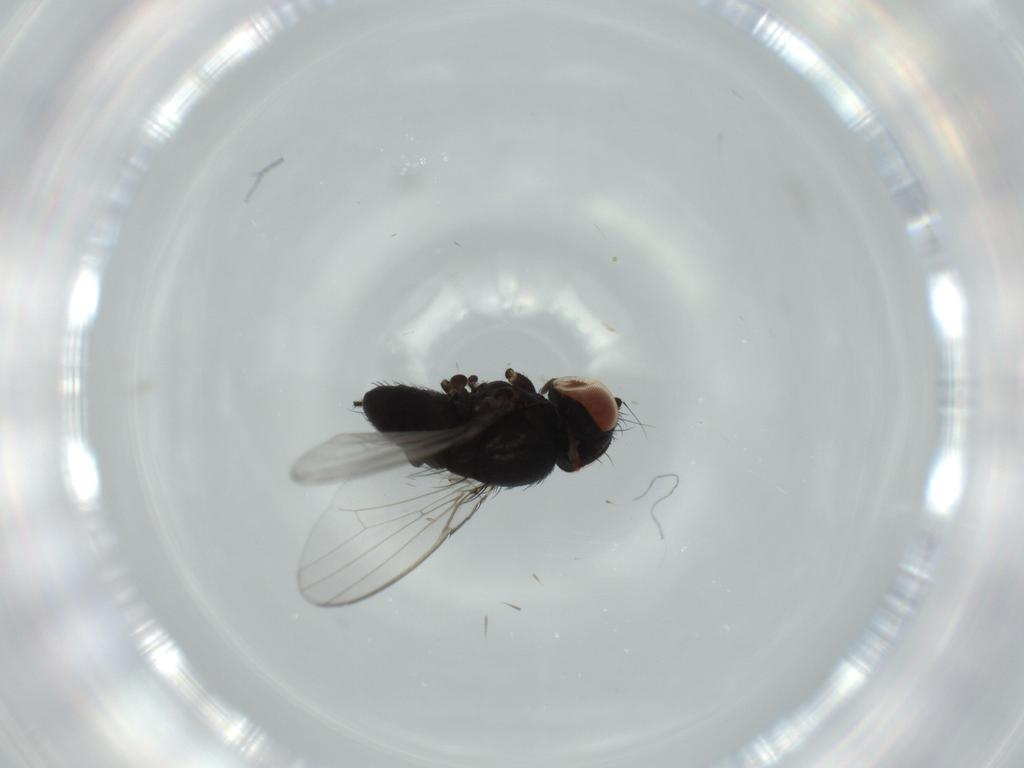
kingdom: Animalia
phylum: Arthropoda
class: Insecta
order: Diptera
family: Milichiidae
